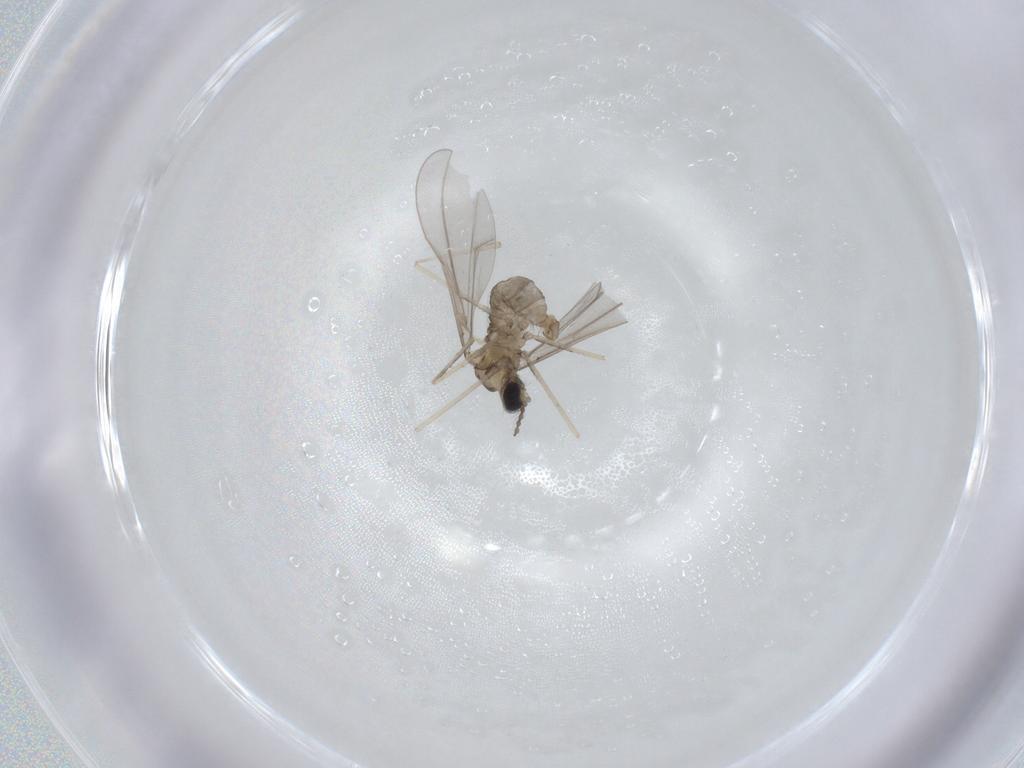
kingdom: Animalia
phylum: Arthropoda
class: Insecta
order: Diptera
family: Cecidomyiidae
